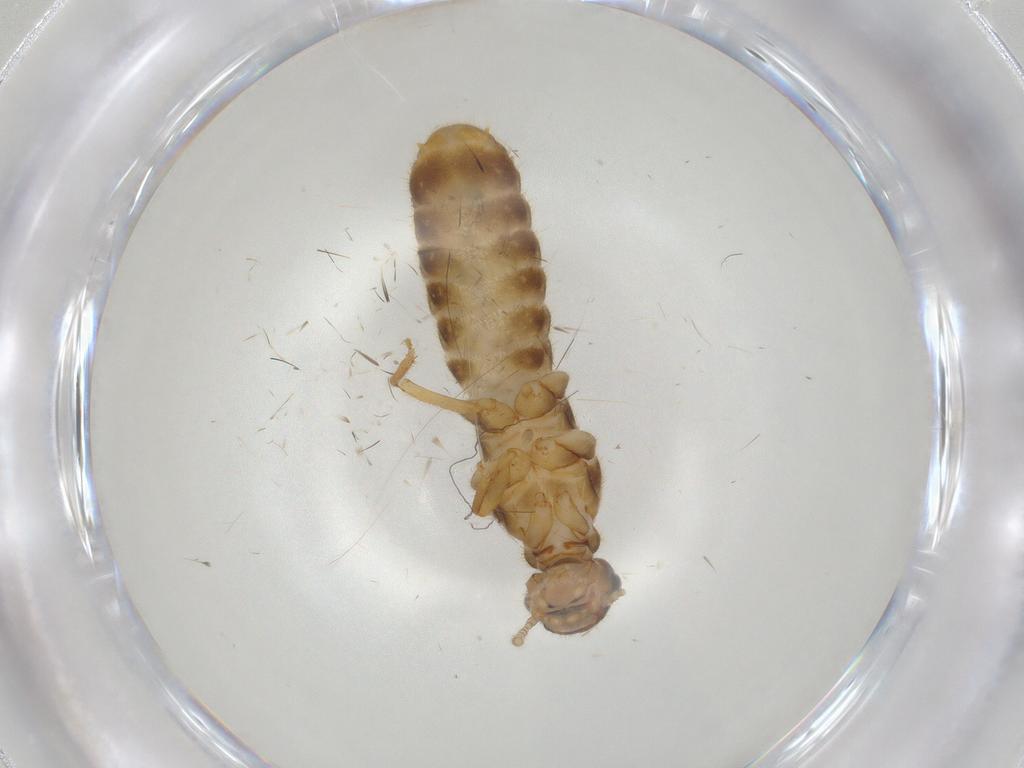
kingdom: Animalia
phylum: Arthropoda
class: Insecta
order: Blattodea
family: Termitidae
